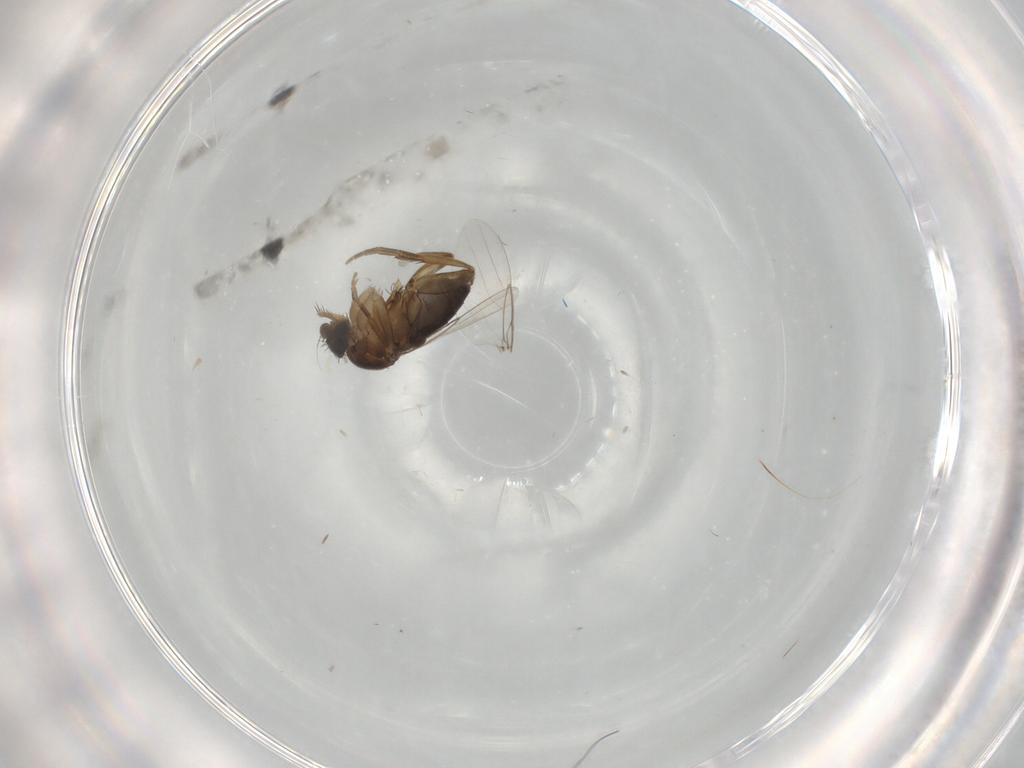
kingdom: Animalia
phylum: Arthropoda
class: Insecta
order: Diptera
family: Phoridae
